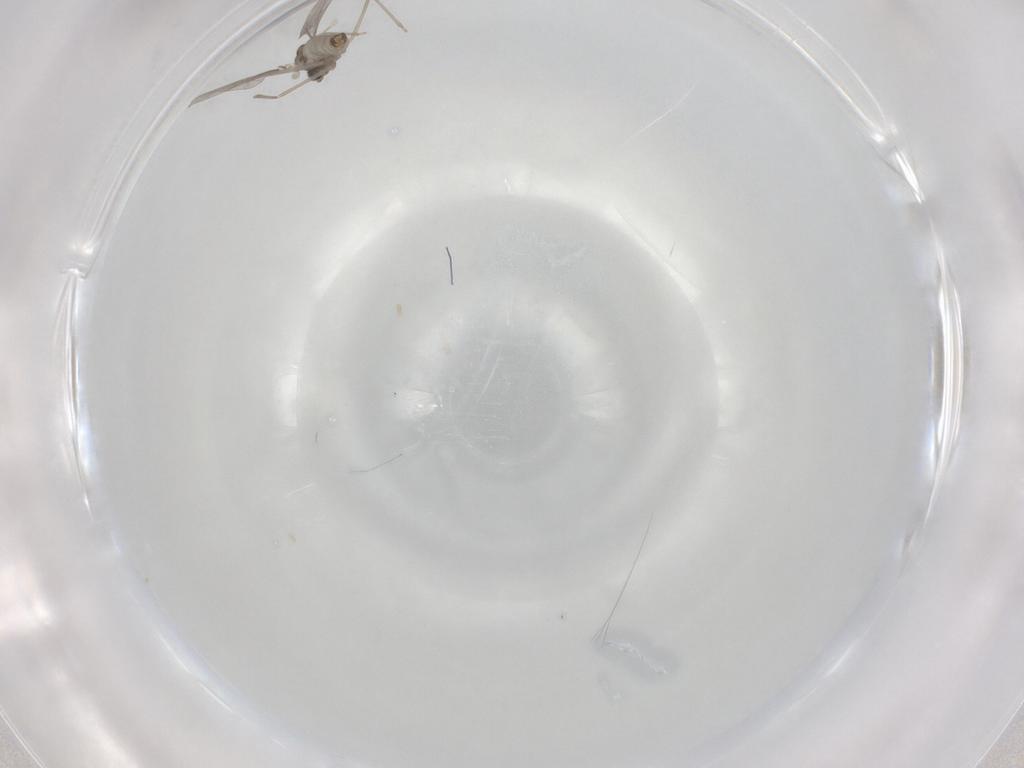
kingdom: Animalia
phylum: Arthropoda
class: Insecta
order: Diptera
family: Cecidomyiidae
